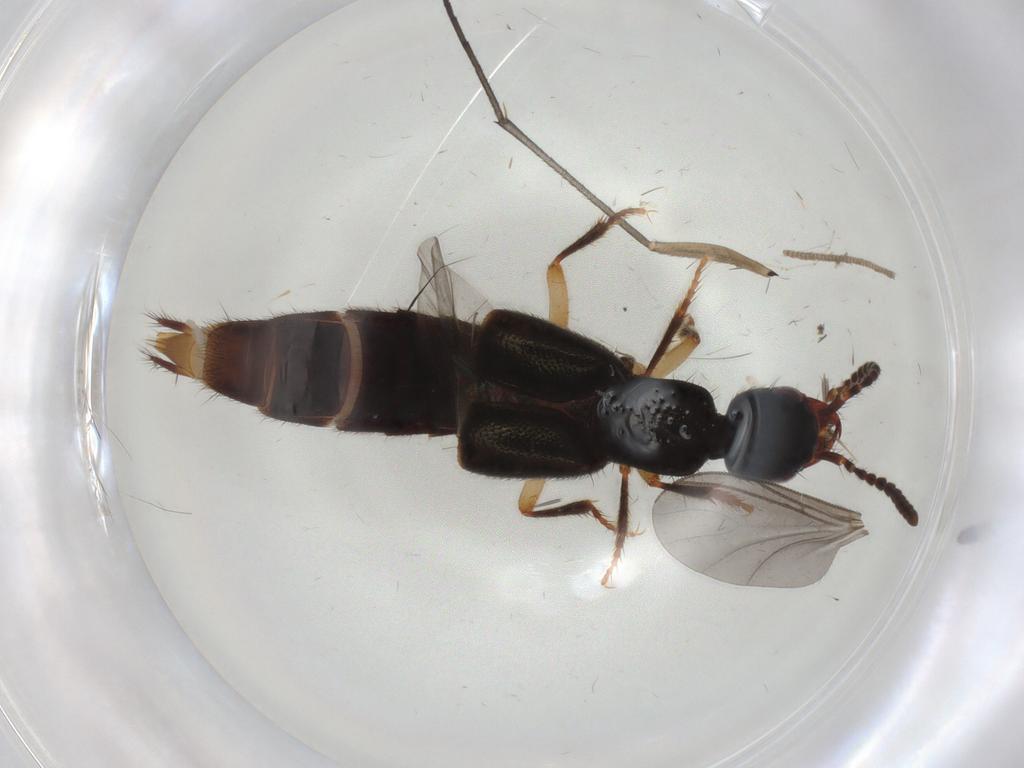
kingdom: Animalia
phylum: Arthropoda
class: Insecta
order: Coleoptera
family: Staphylinidae
